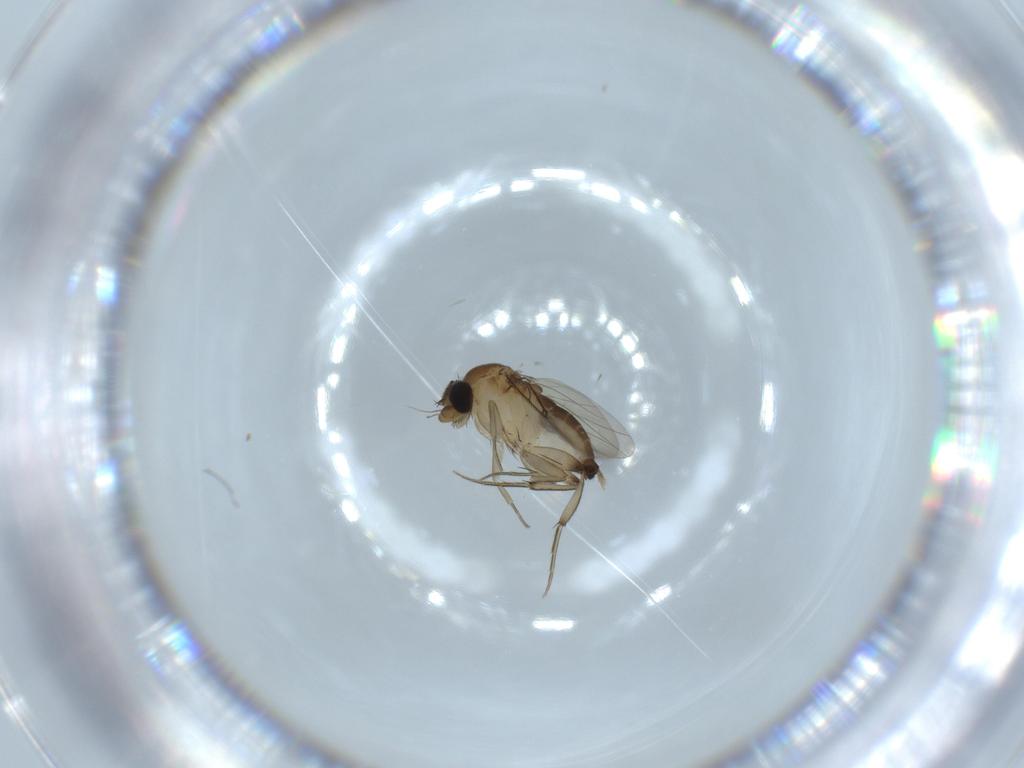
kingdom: Animalia
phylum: Arthropoda
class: Insecta
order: Diptera
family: Phoridae
